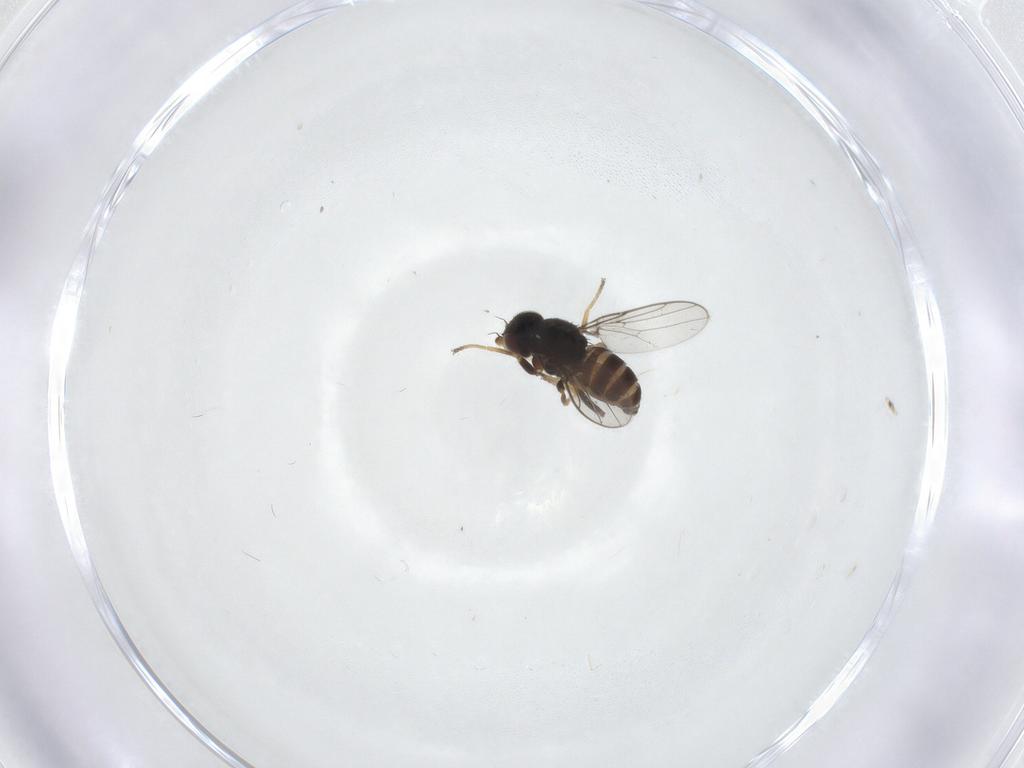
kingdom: Animalia
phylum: Arthropoda
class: Insecta
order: Diptera
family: Chloropidae
